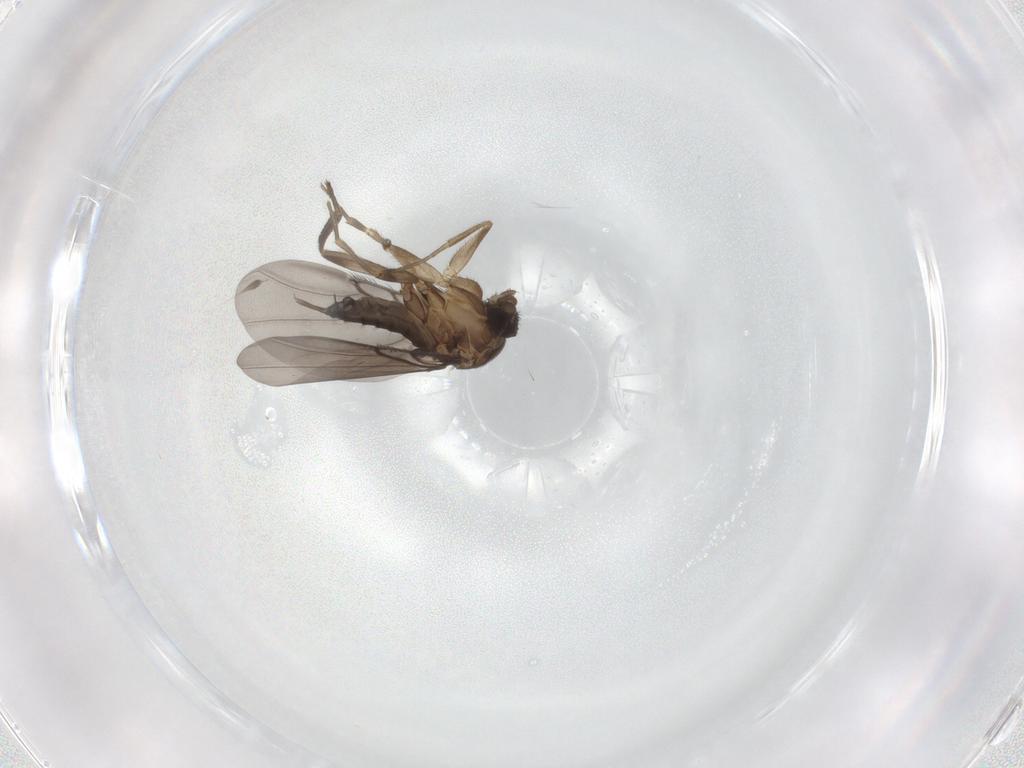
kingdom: Animalia
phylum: Arthropoda
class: Insecta
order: Diptera
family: Phoridae
